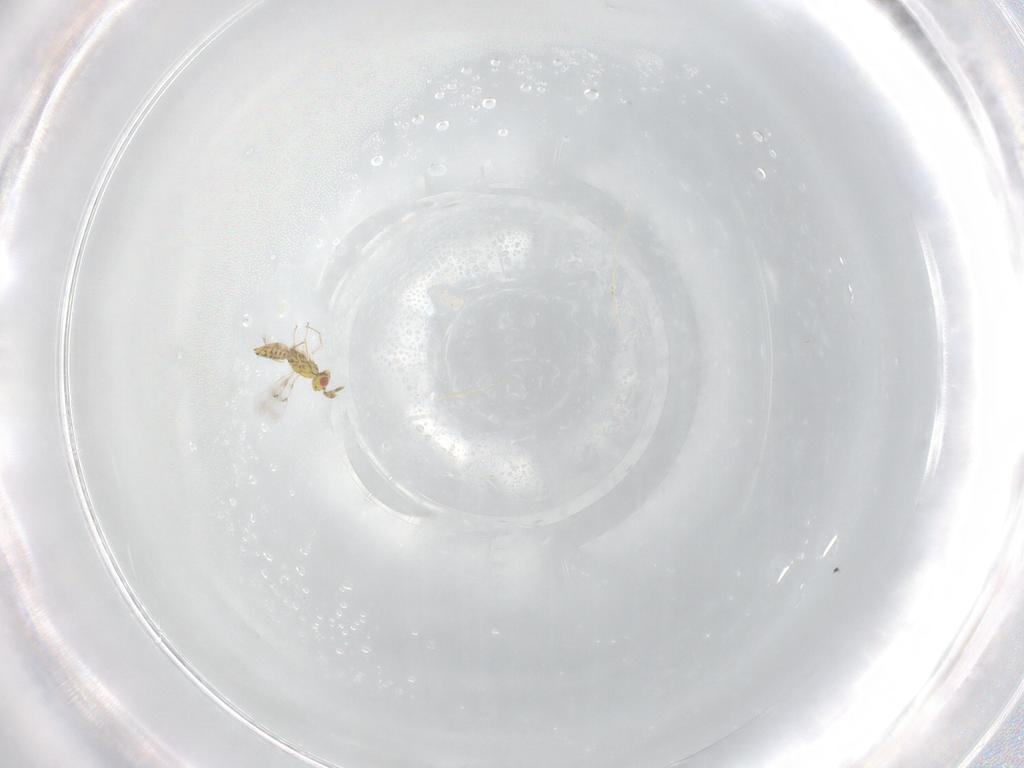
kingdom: Animalia
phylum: Arthropoda
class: Insecta
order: Hymenoptera
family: Eulophidae
